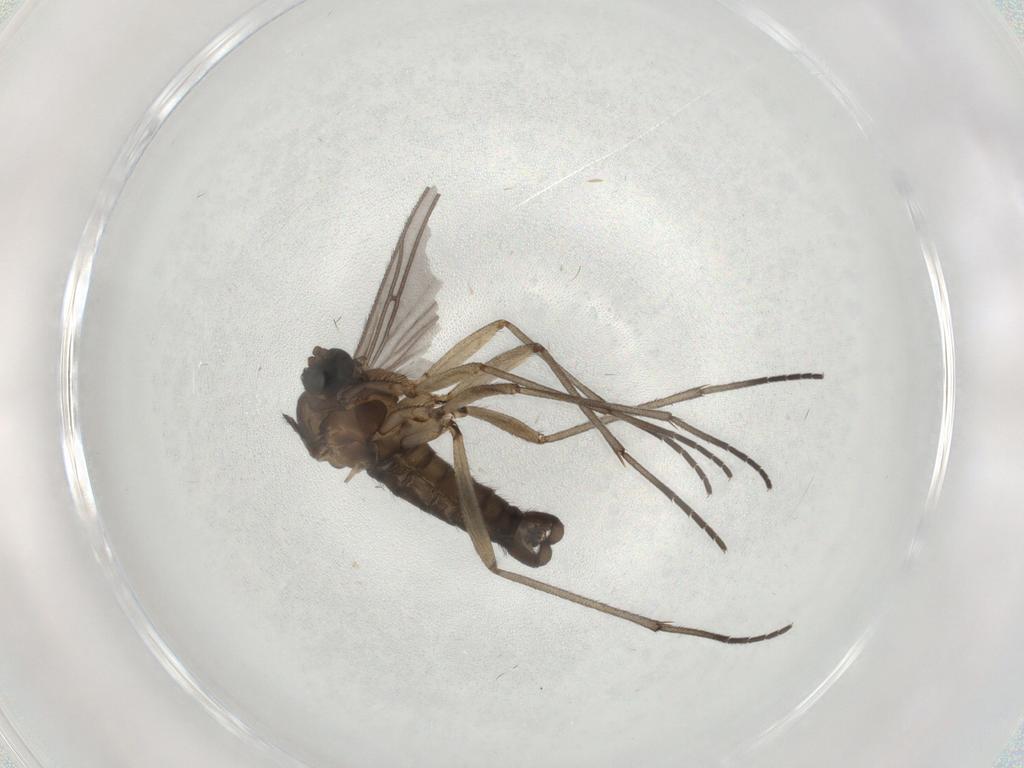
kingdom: Animalia
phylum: Arthropoda
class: Insecta
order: Diptera
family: Sciaridae
